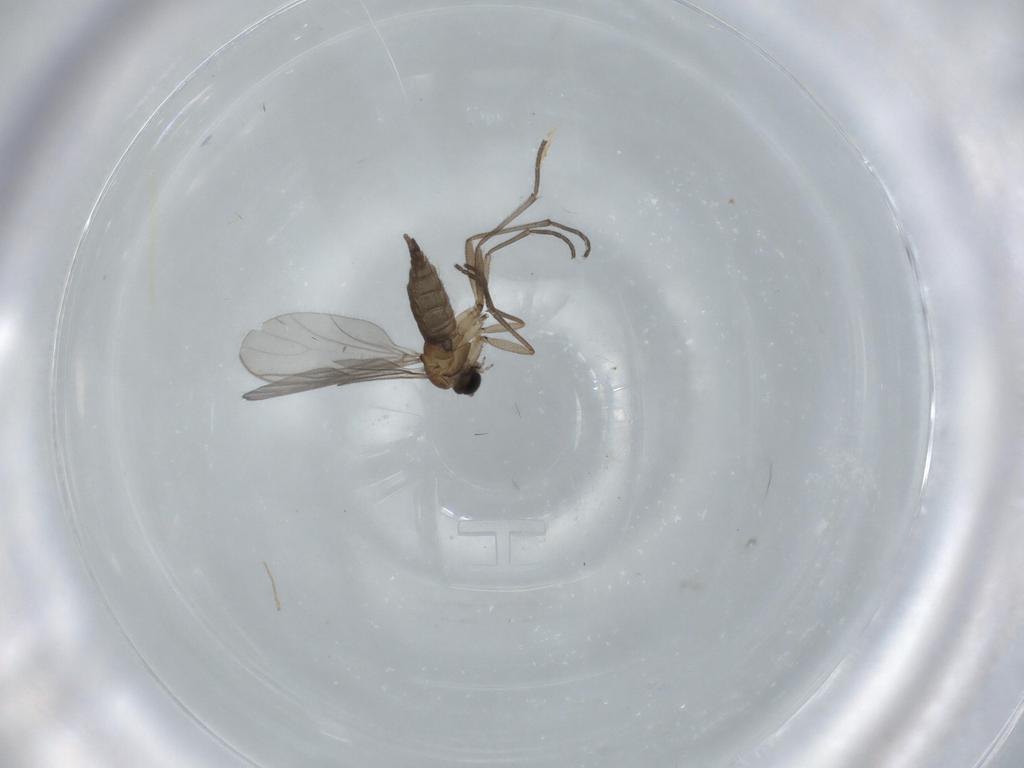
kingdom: Animalia
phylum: Arthropoda
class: Insecta
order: Diptera
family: Sciaridae
